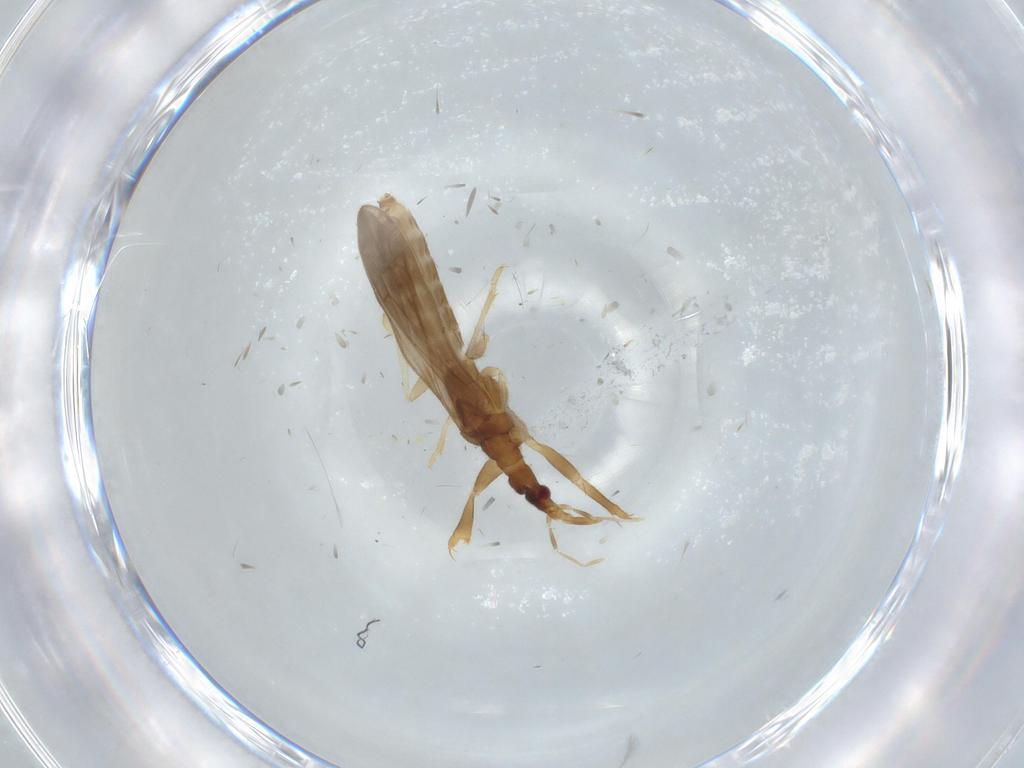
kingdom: Animalia
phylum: Arthropoda
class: Insecta
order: Hemiptera
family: Enicocephalidae
